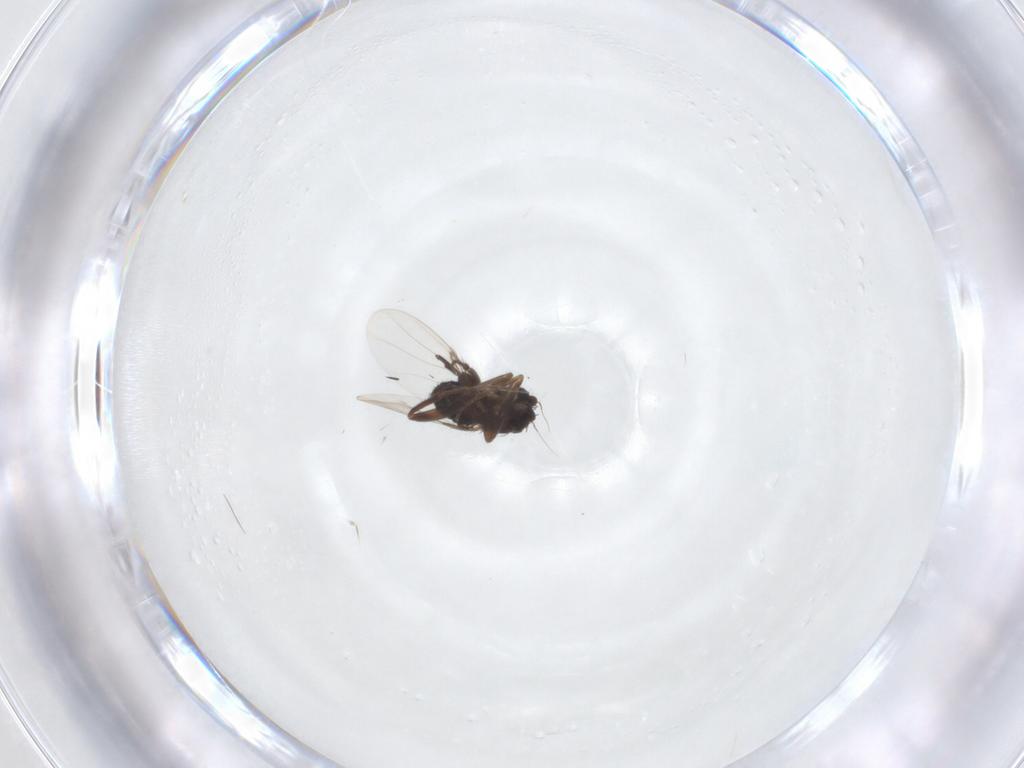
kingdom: Animalia
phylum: Arthropoda
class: Insecta
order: Diptera
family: Phoridae
